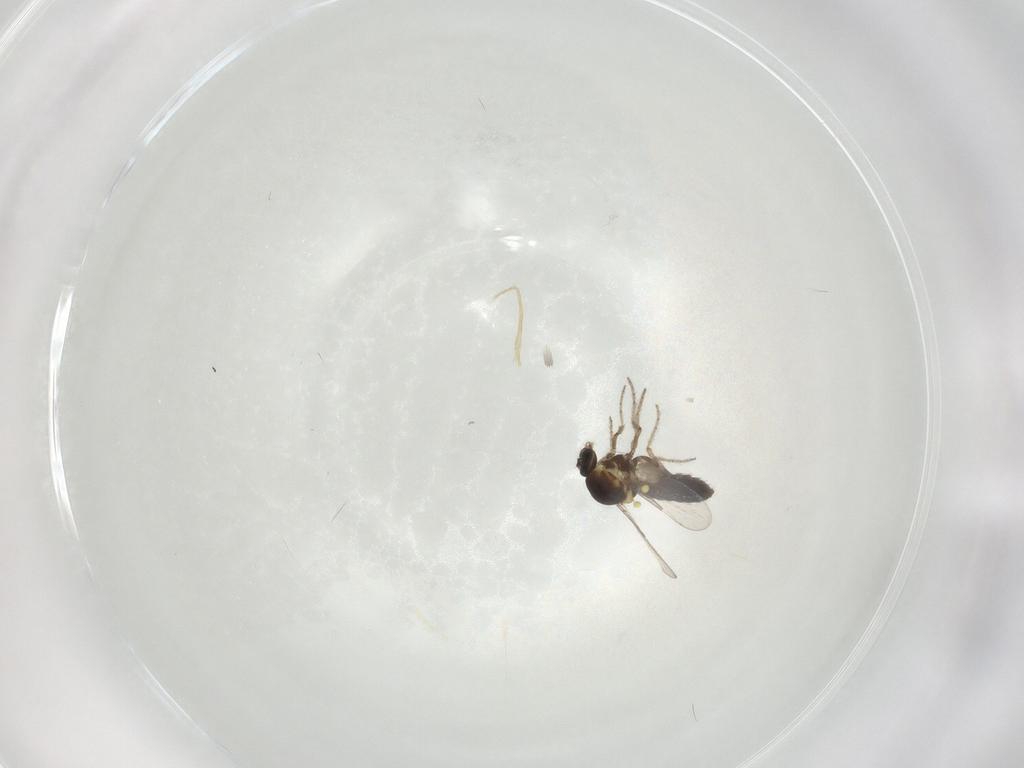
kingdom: Animalia
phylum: Arthropoda
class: Insecta
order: Diptera
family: Ceratopogonidae
